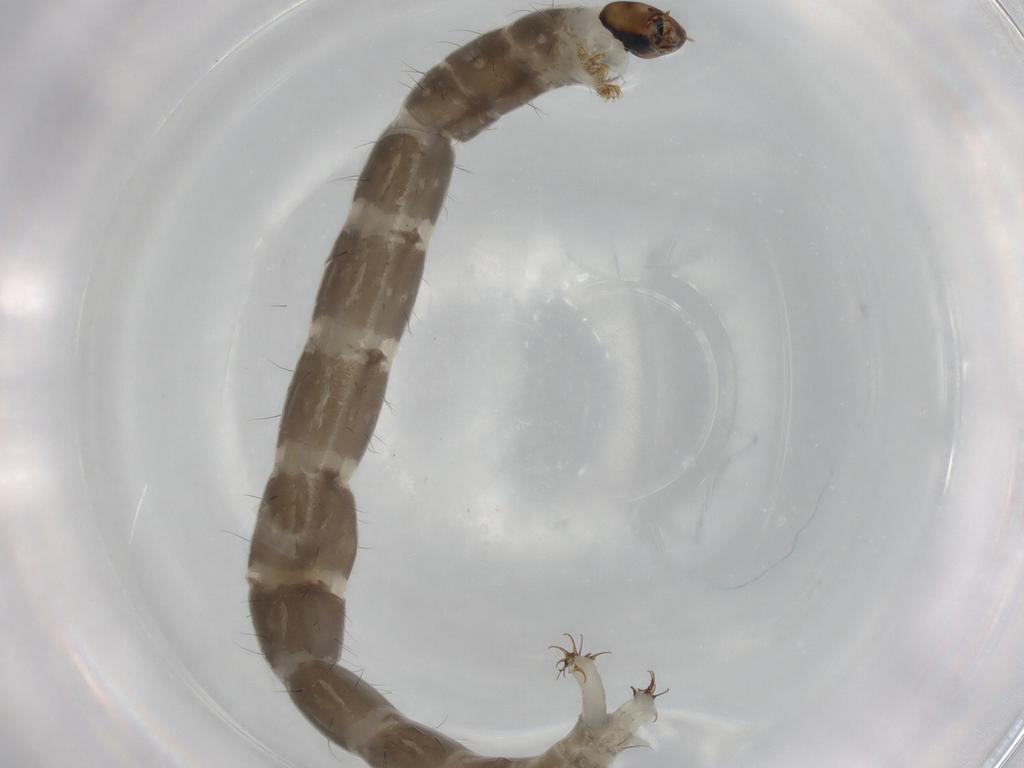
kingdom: Animalia
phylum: Arthropoda
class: Insecta
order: Diptera
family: Chironomidae
